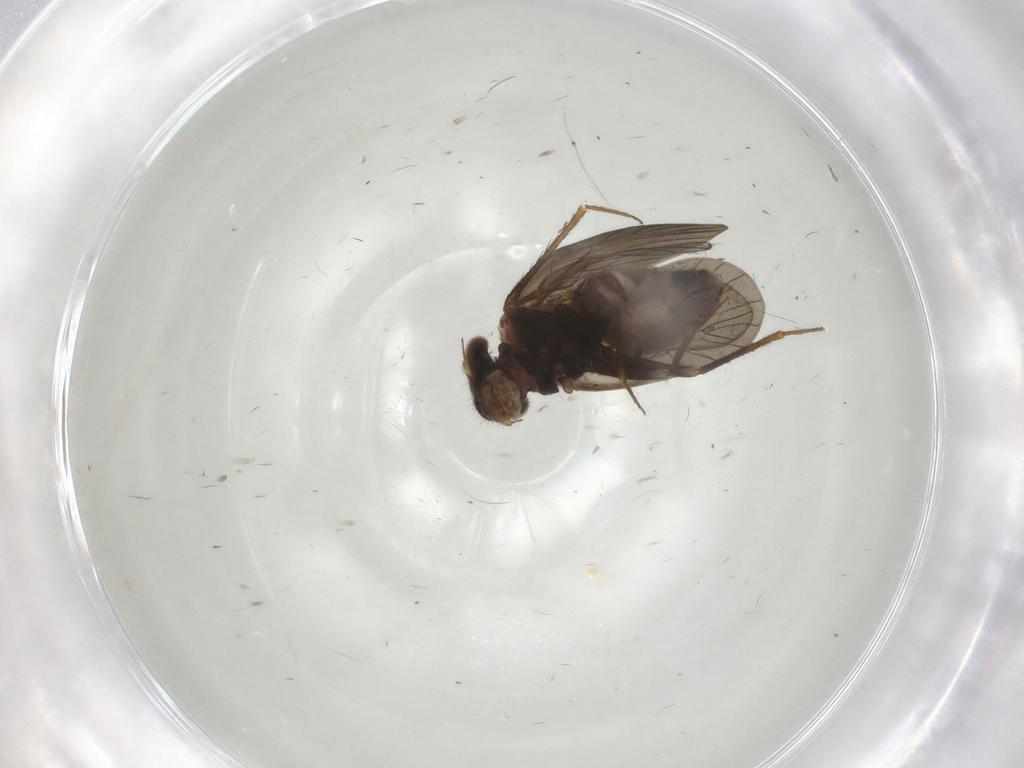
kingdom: Animalia
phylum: Arthropoda
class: Insecta
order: Psocodea
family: Lepidopsocidae
